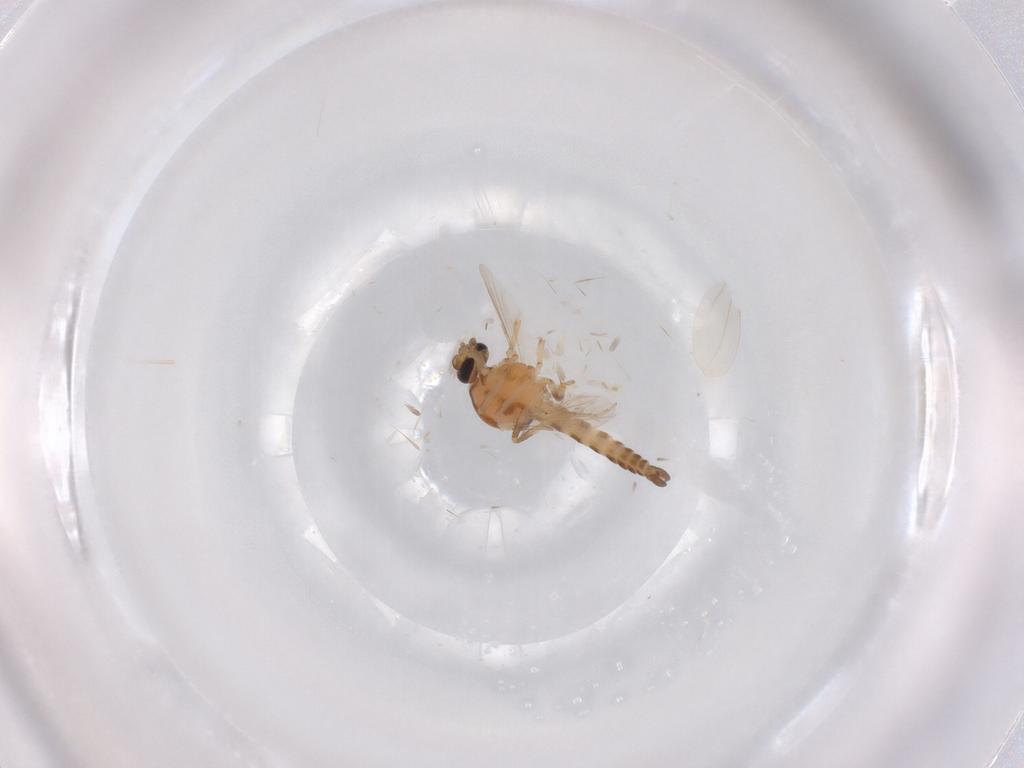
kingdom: Animalia
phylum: Arthropoda
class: Insecta
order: Diptera
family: Ceratopogonidae
